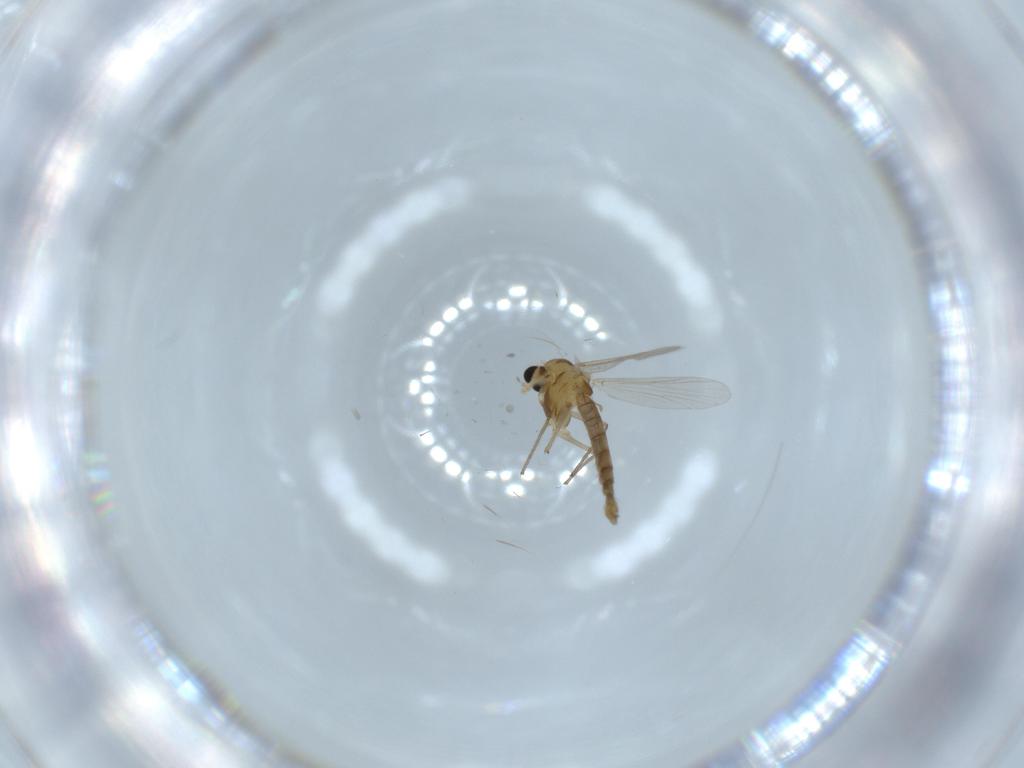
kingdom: Animalia
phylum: Arthropoda
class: Insecta
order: Diptera
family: Chironomidae
